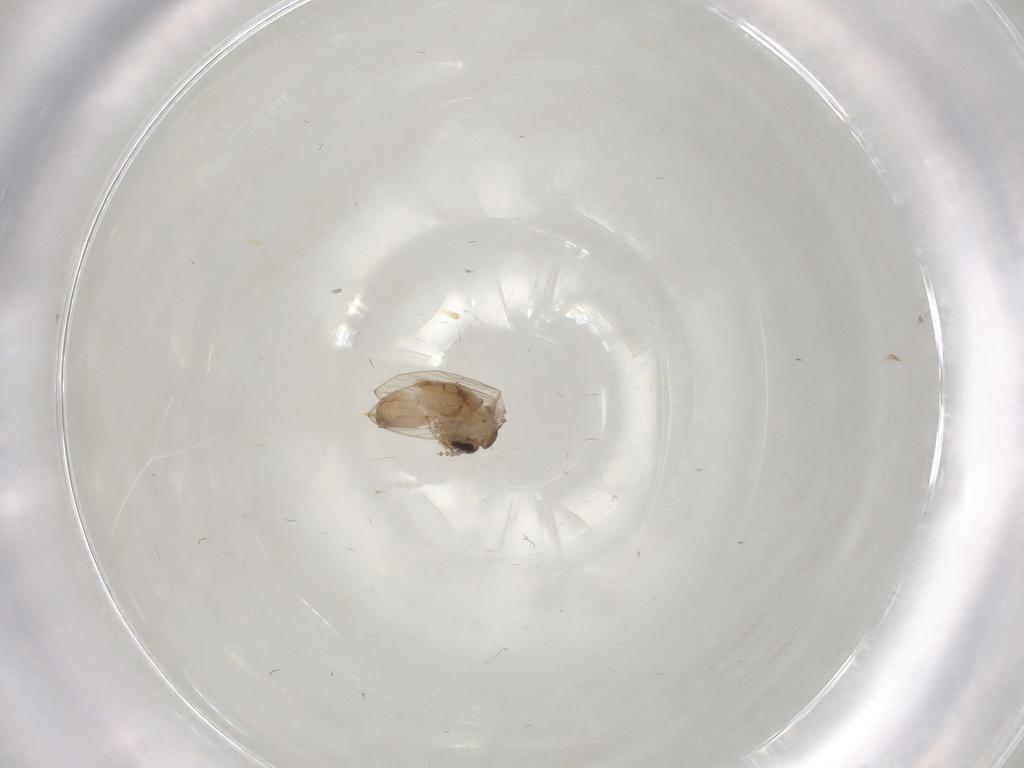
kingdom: Animalia
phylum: Arthropoda
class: Insecta
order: Diptera
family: Psychodidae
